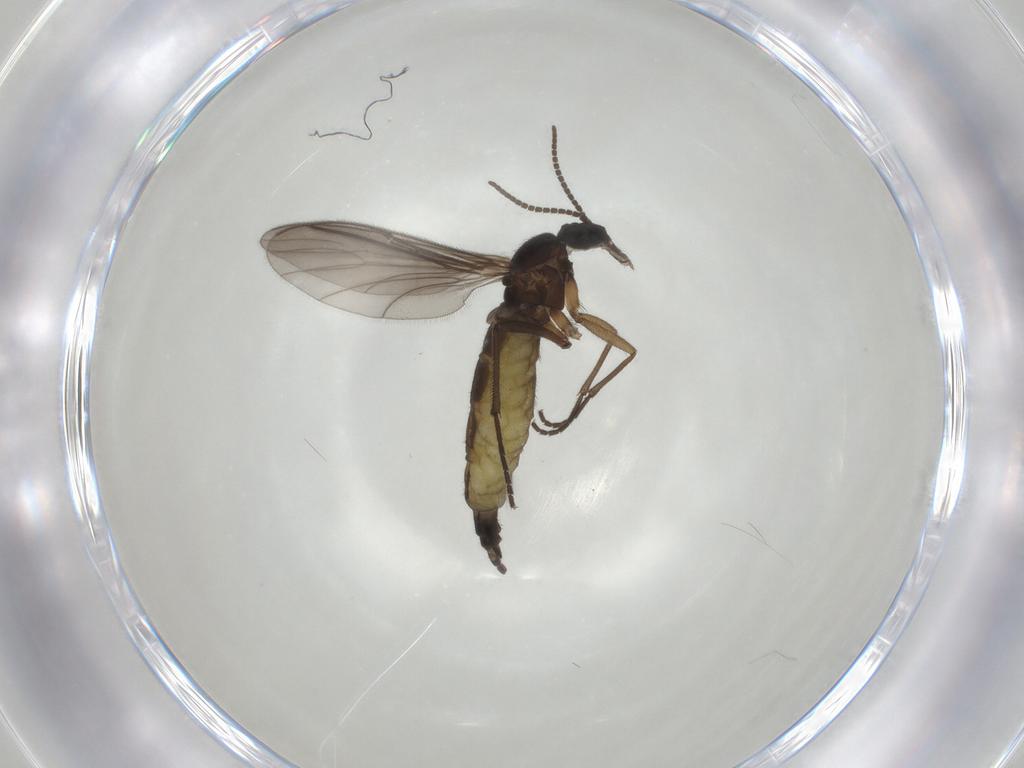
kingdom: Animalia
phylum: Arthropoda
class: Insecta
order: Diptera
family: Sciaridae
